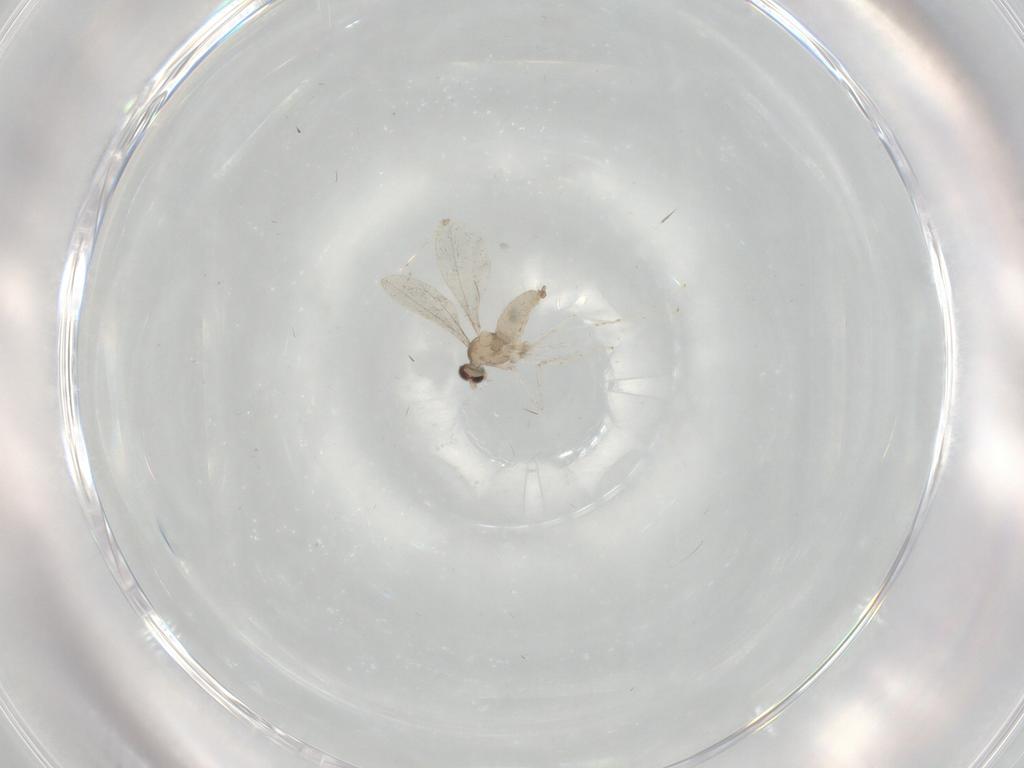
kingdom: Animalia
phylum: Arthropoda
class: Insecta
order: Diptera
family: Cecidomyiidae
